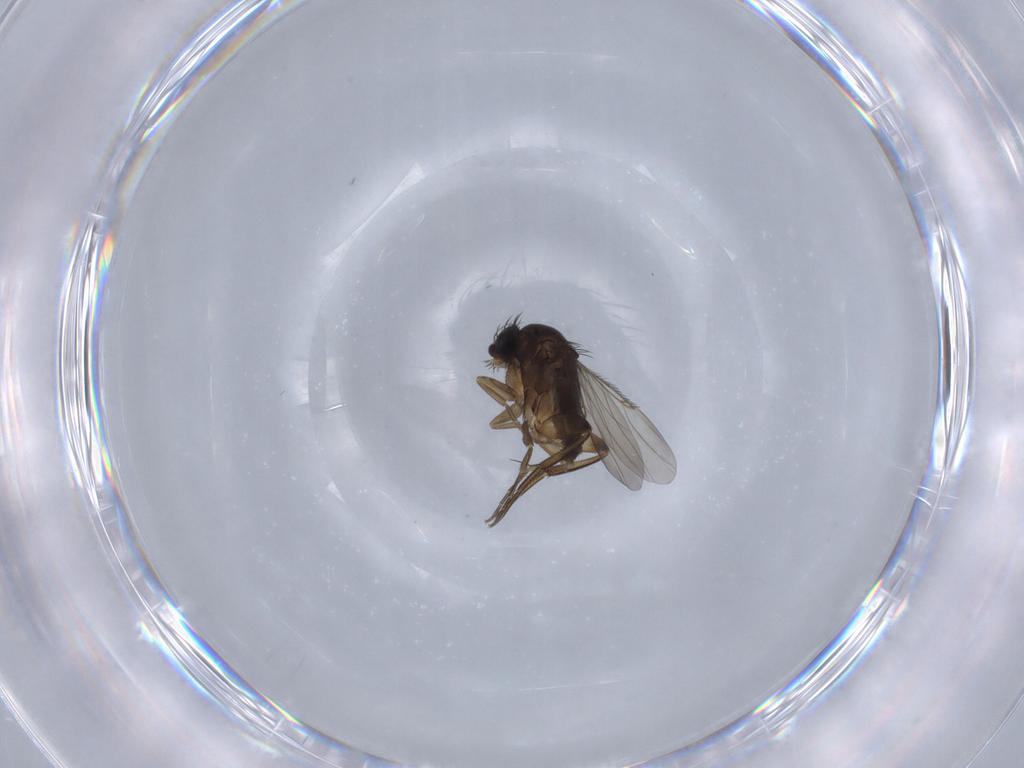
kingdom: Animalia
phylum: Arthropoda
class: Insecta
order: Diptera
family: Phoridae
